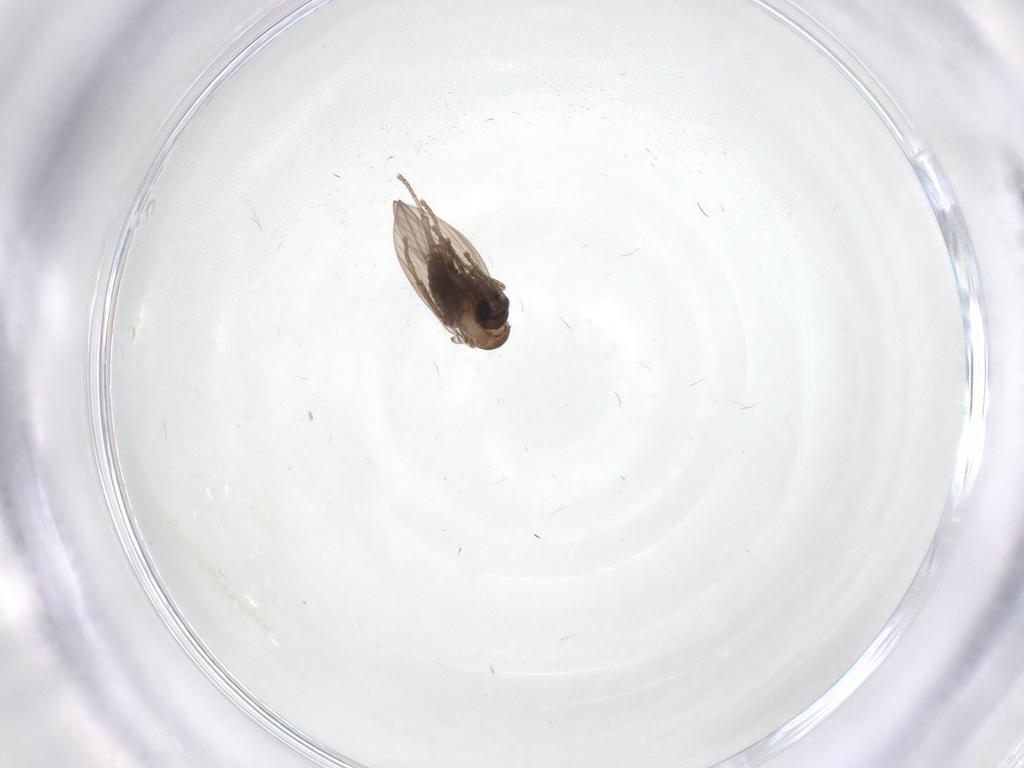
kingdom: Animalia
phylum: Arthropoda
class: Insecta
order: Diptera
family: Psychodidae
